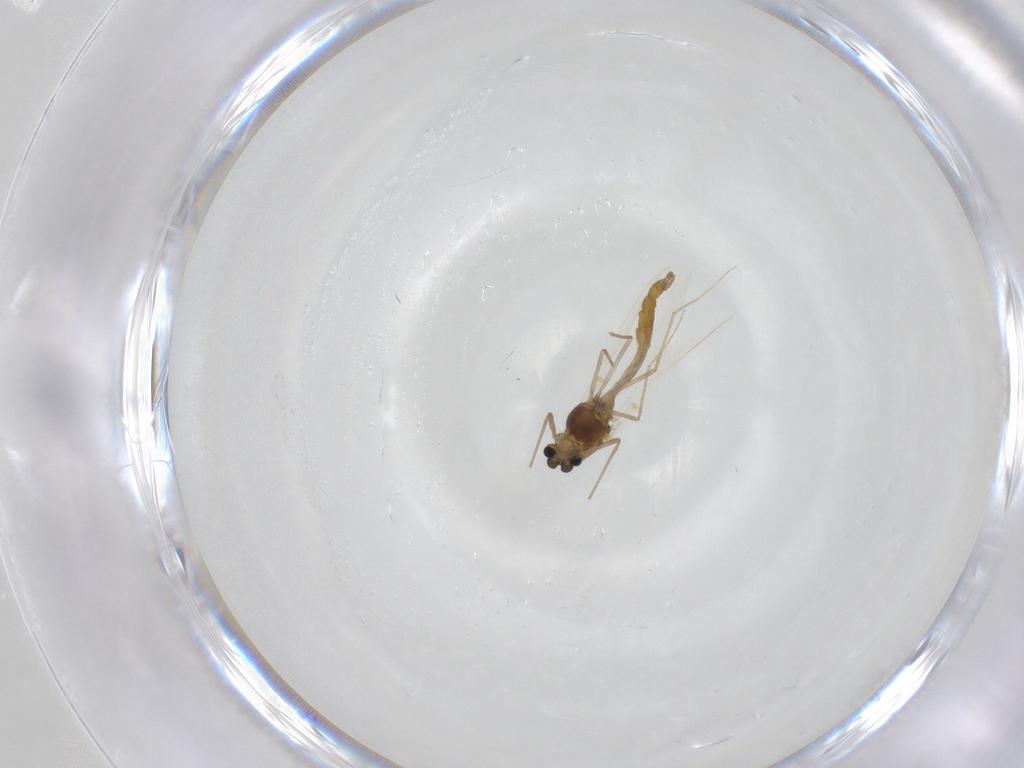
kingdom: Animalia
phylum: Arthropoda
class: Insecta
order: Diptera
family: Chironomidae
